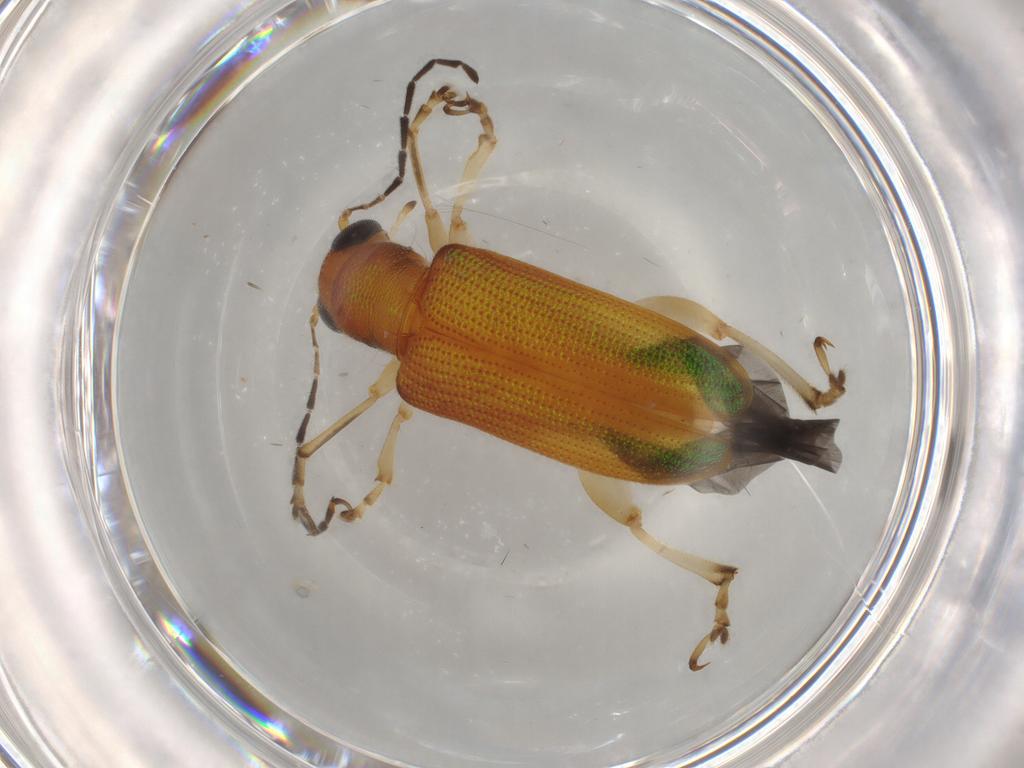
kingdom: Animalia
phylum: Arthropoda
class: Insecta
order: Coleoptera
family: Chrysomelidae
